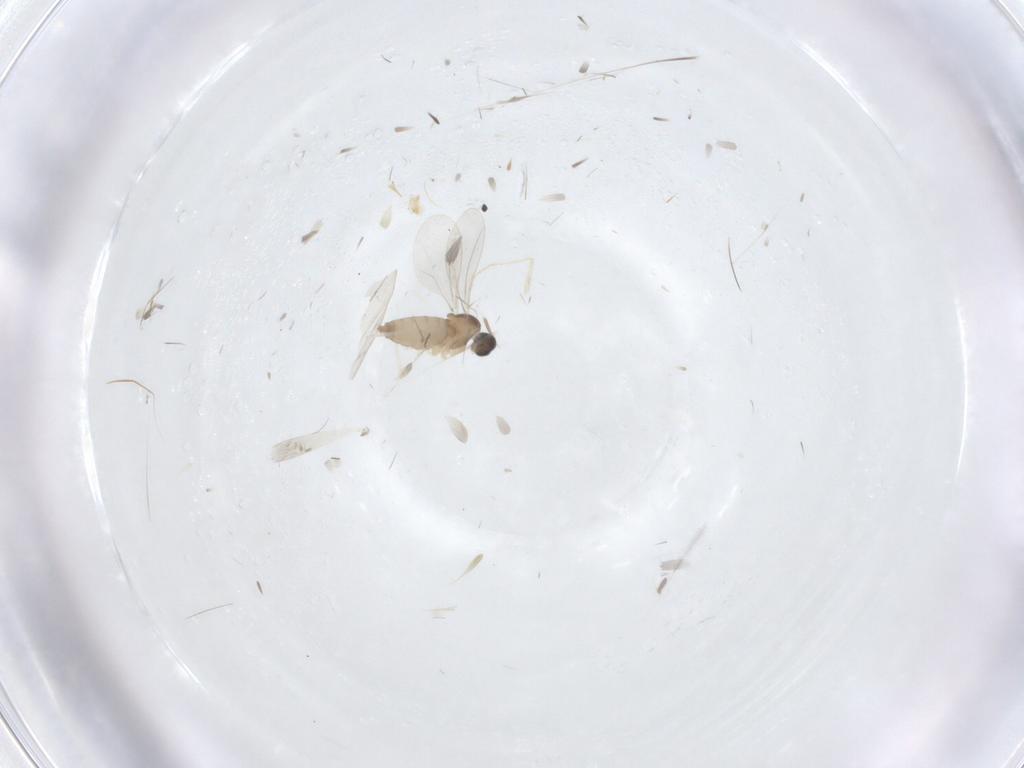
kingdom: Animalia
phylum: Arthropoda
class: Insecta
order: Diptera
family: Cecidomyiidae
